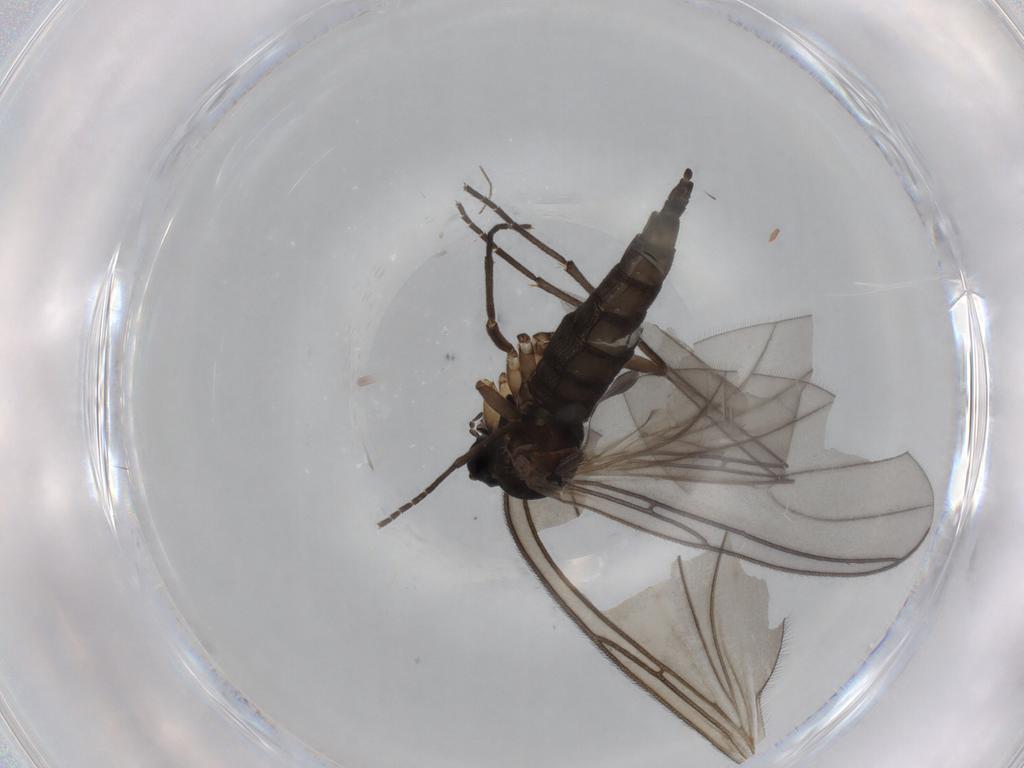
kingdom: Animalia
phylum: Arthropoda
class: Insecta
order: Diptera
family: Sciaridae
